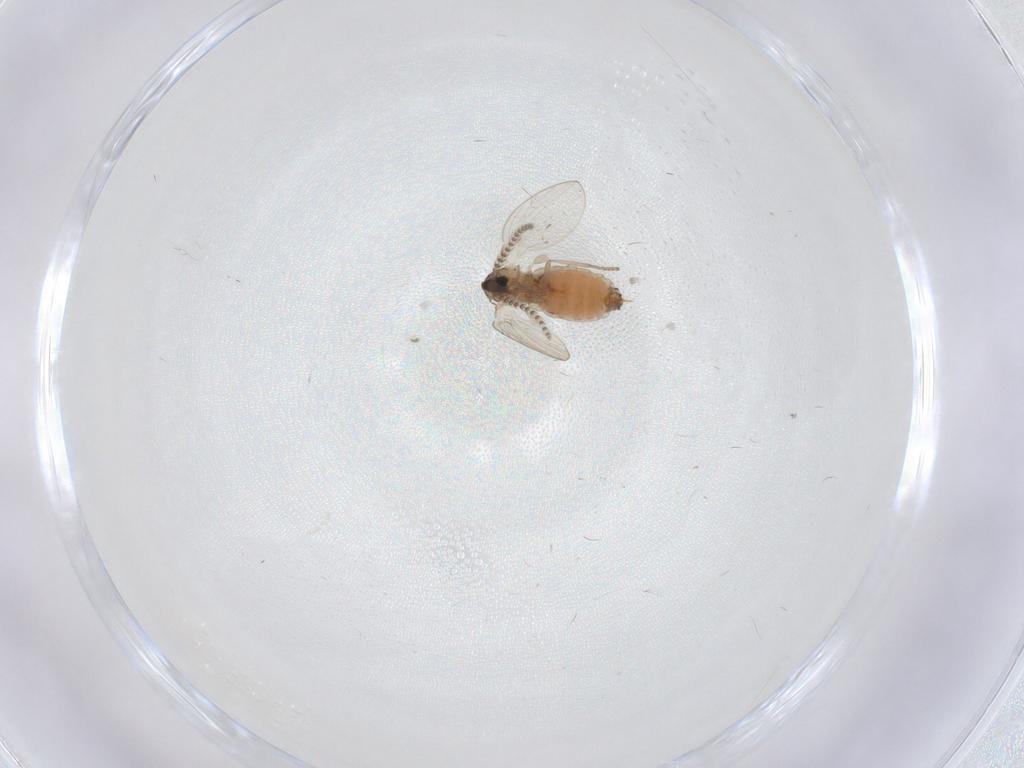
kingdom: Animalia
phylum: Arthropoda
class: Insecta
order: Diptera
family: Psychodidae
